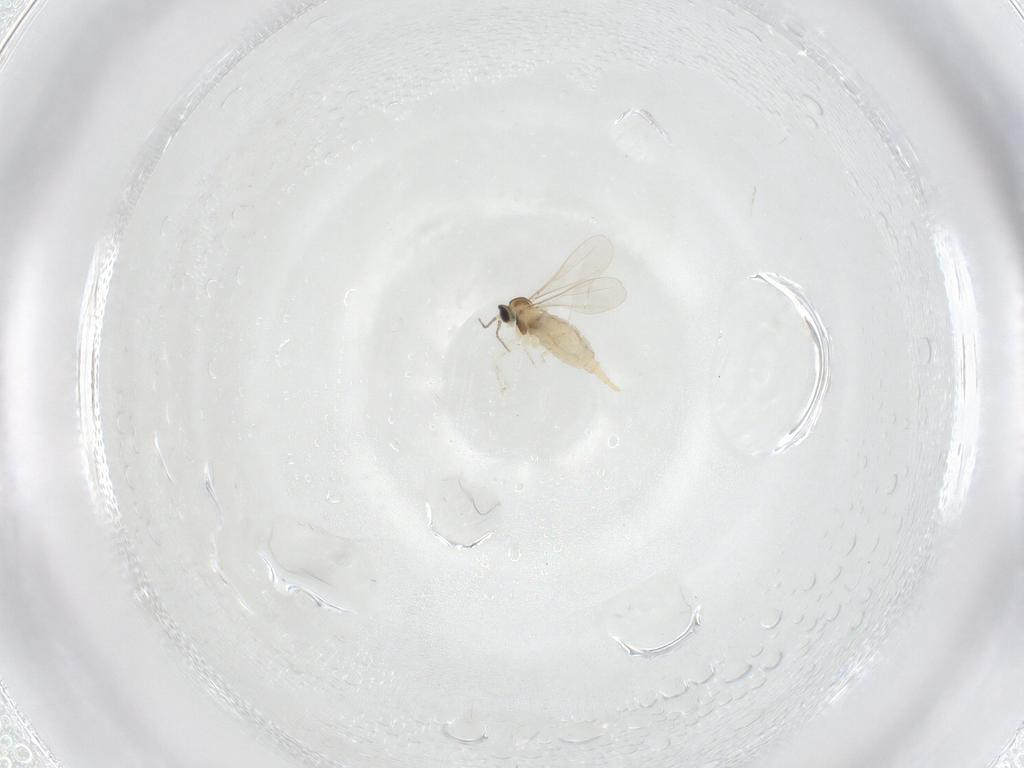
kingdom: Animalia
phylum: Arthropoda
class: Insecta
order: Diptera
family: Cecidomyiidae
